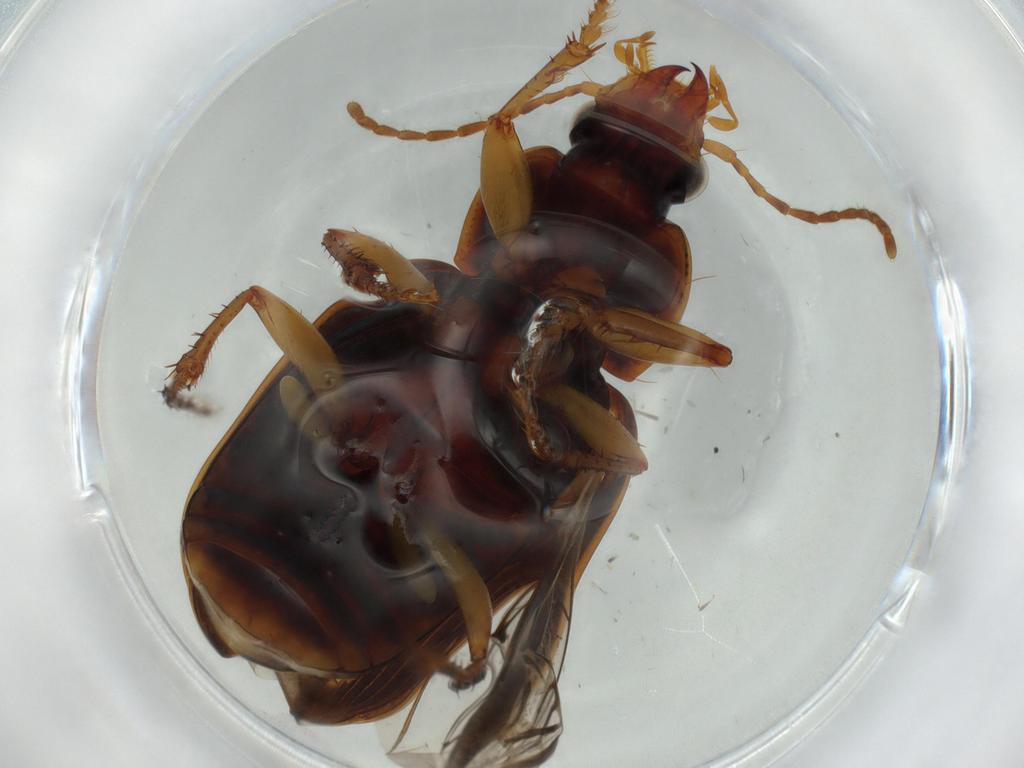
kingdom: Animalia
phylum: Arthropoda
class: Insecta
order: Coleoptera
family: Carabidae
